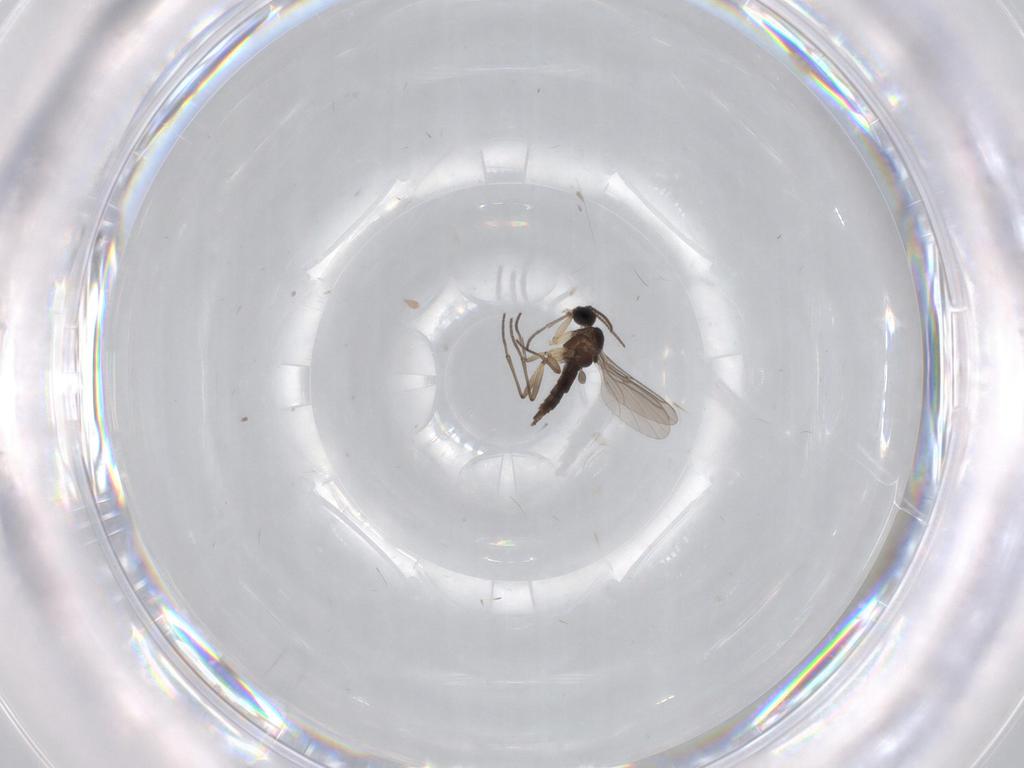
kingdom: Animalia
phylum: Arthropoda
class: Insecta
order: Diptera
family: Sciaridae
